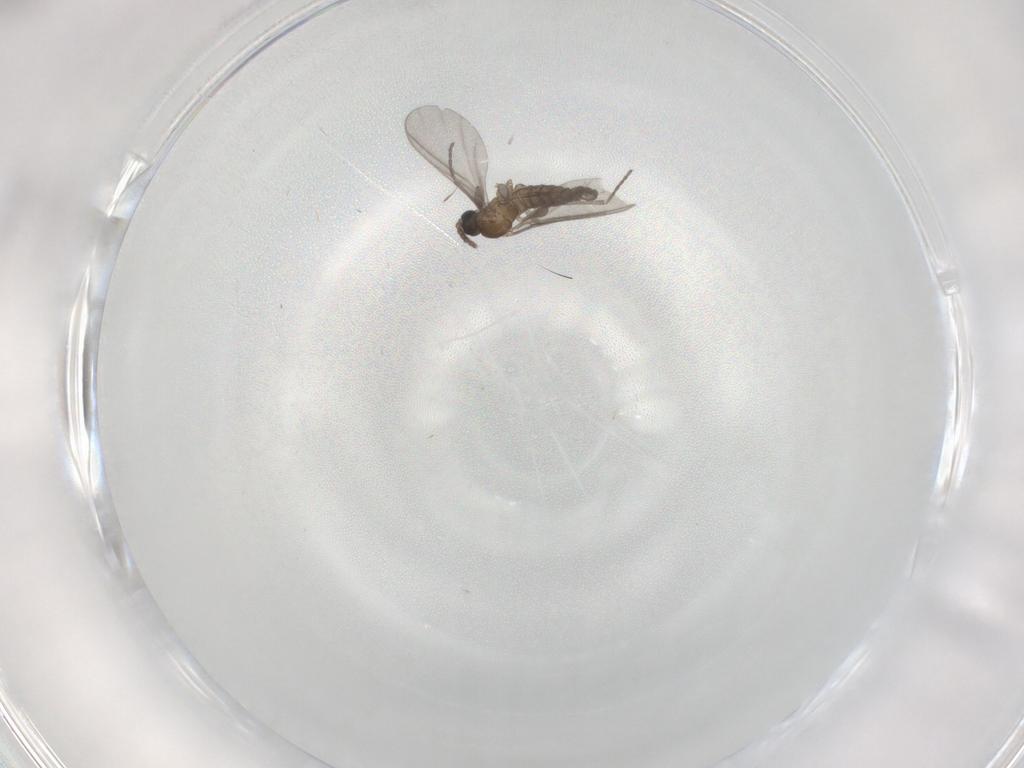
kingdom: Animalia
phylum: Arthropoda
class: Insecta
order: Diptera
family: Sciaridae
